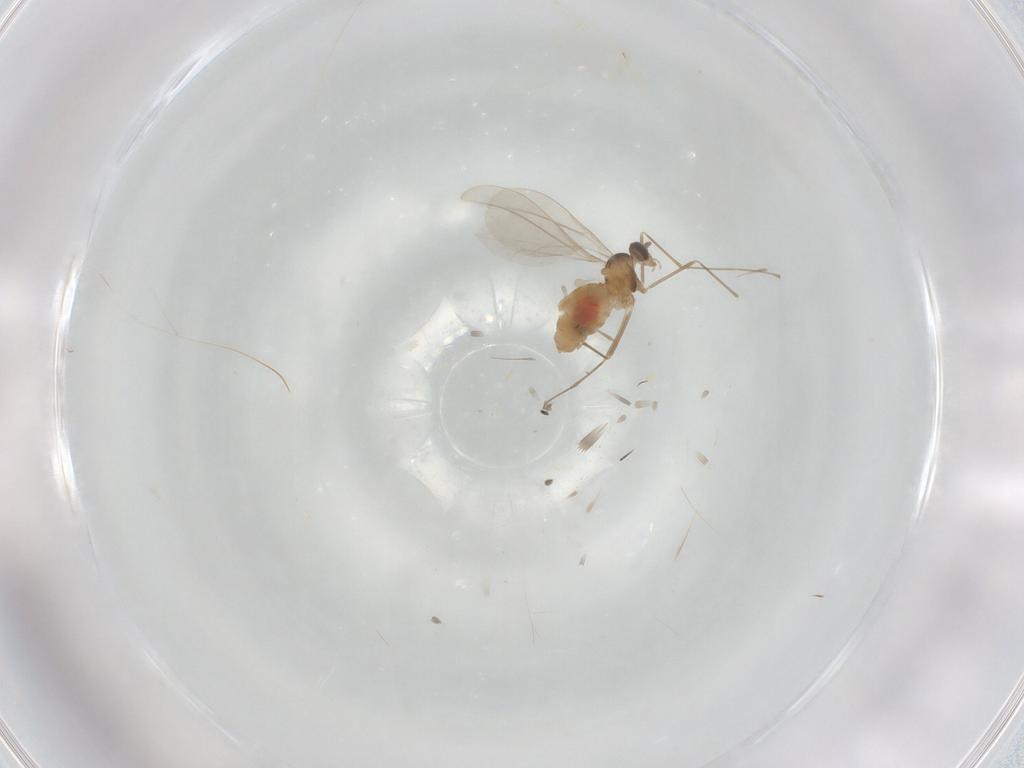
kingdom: Animalia
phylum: Arthropoda
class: Insecta
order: Diptera
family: Cecidomyiidae
